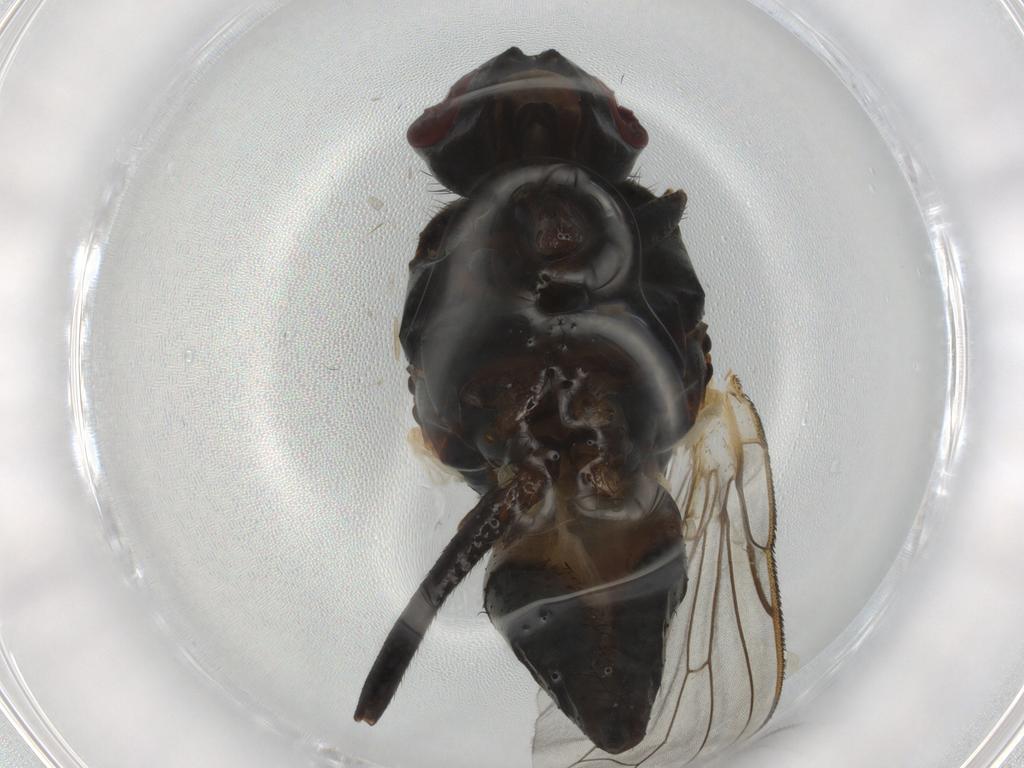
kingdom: Animalia
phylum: Arthropoda
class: Insecta
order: Diptera
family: Anthomyiidae
